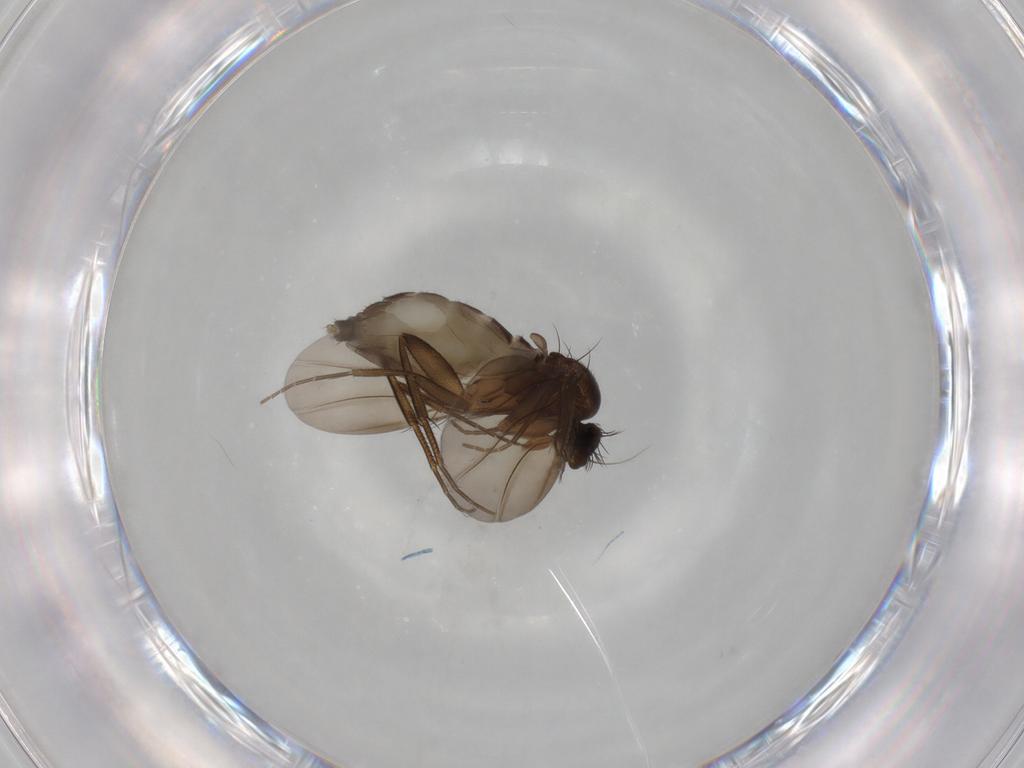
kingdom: Animalia
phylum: Arthropoda
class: Insecta
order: Diptera
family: Phoridae
